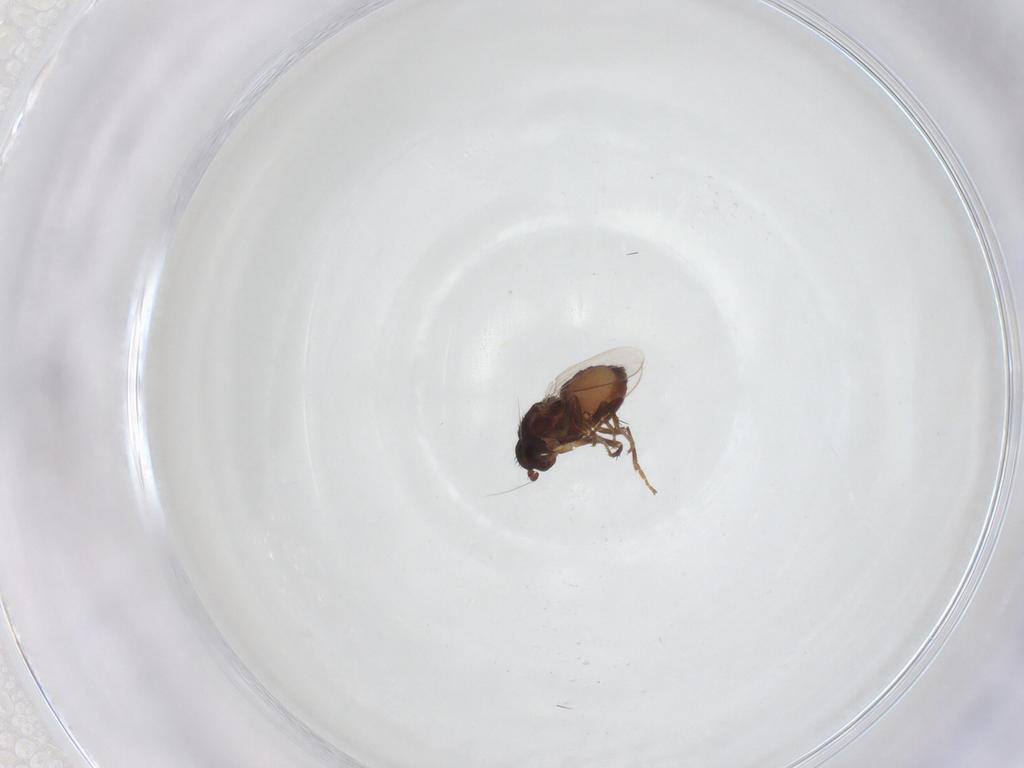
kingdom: Animalia
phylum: Arthropoda
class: Insecta
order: Diptera
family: Sphaeroceridae
